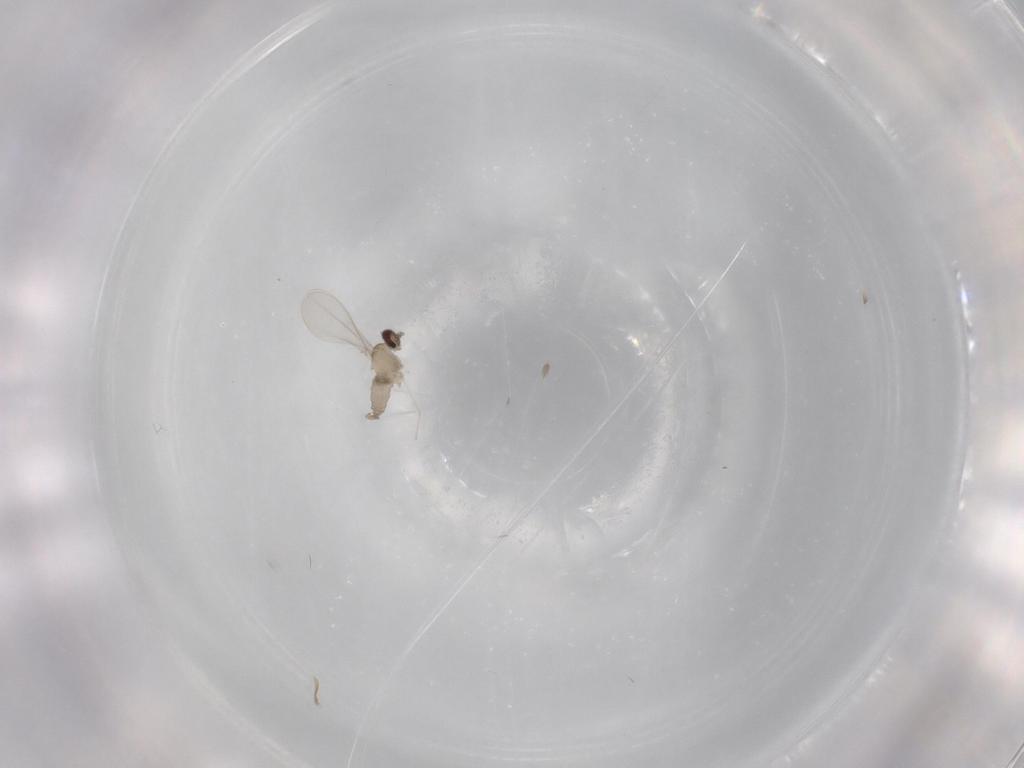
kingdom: Animalia
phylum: Arthropoda
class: Insecta
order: Diptera
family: Cecidomyiidae
